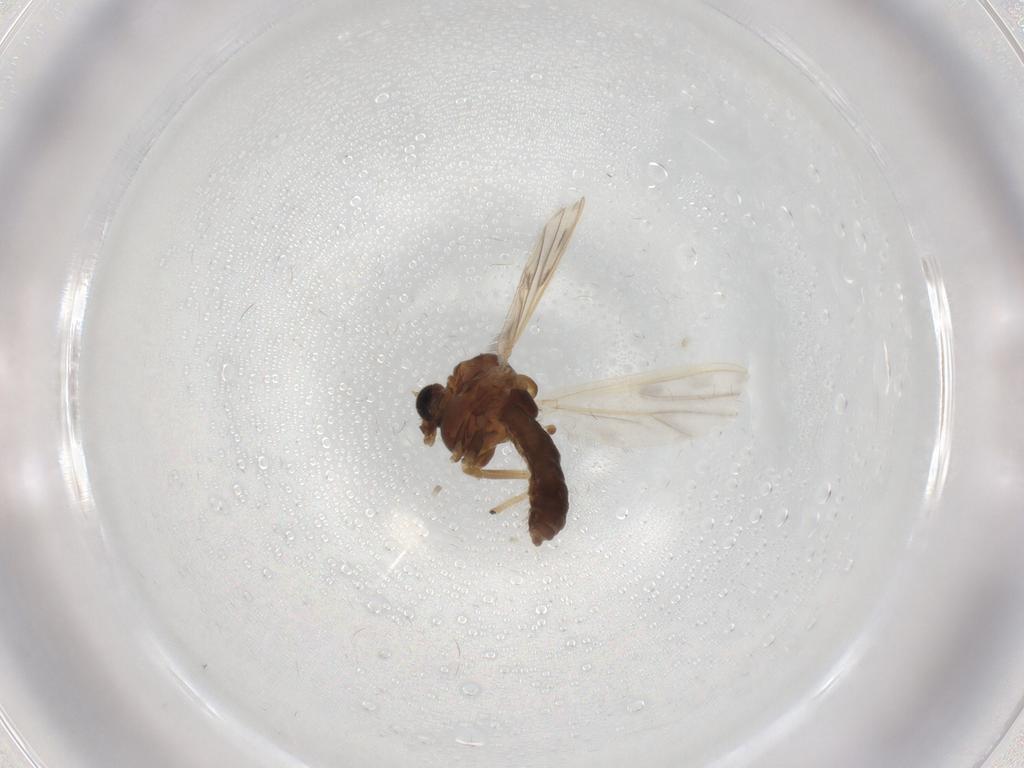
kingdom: Animalia
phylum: Arthropoda
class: Insecta
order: Diptera
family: Chironomidae
